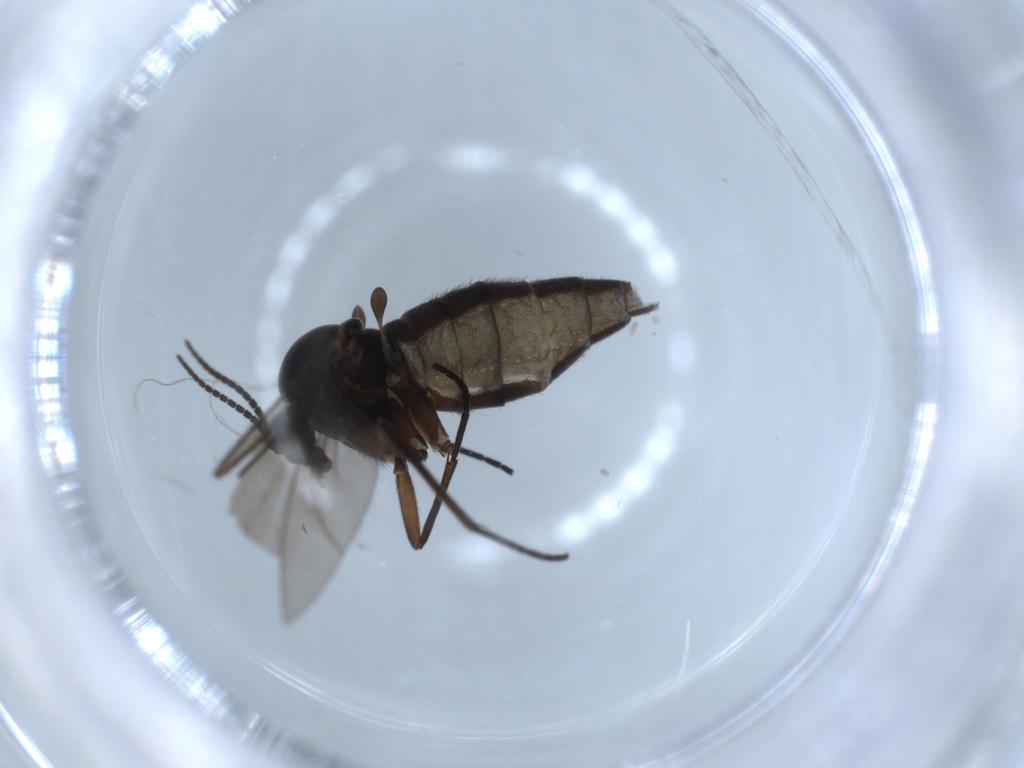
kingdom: Animalia
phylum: Arthropoda
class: Insecta
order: Diptera
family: Sciaridae
